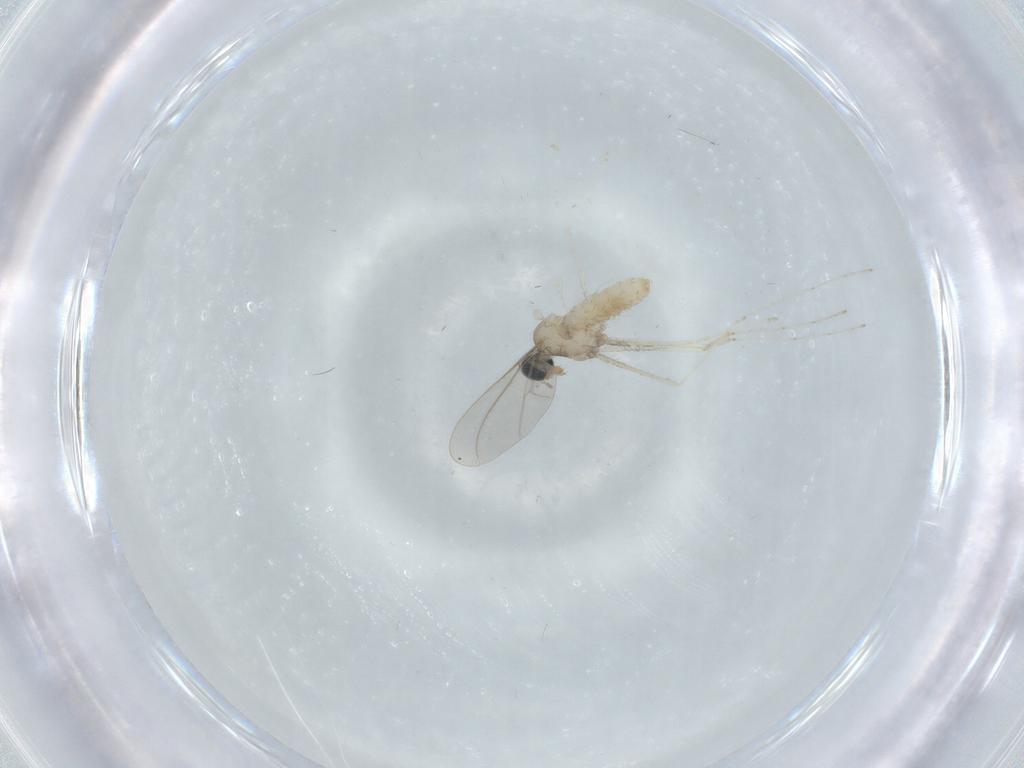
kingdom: Animalia
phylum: Arthropoda
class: Insecta
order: Diptera
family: Cecidomyiidae
